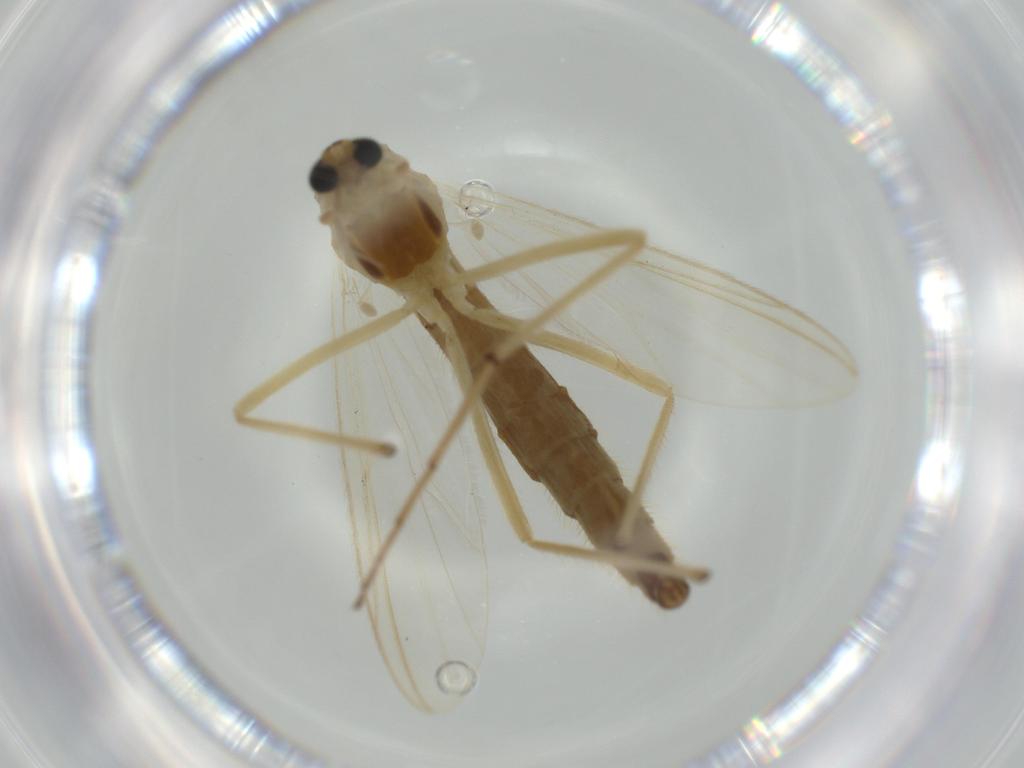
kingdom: Animalia
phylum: Arthropoda
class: Insecta
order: Diptera
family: Chironomidae
